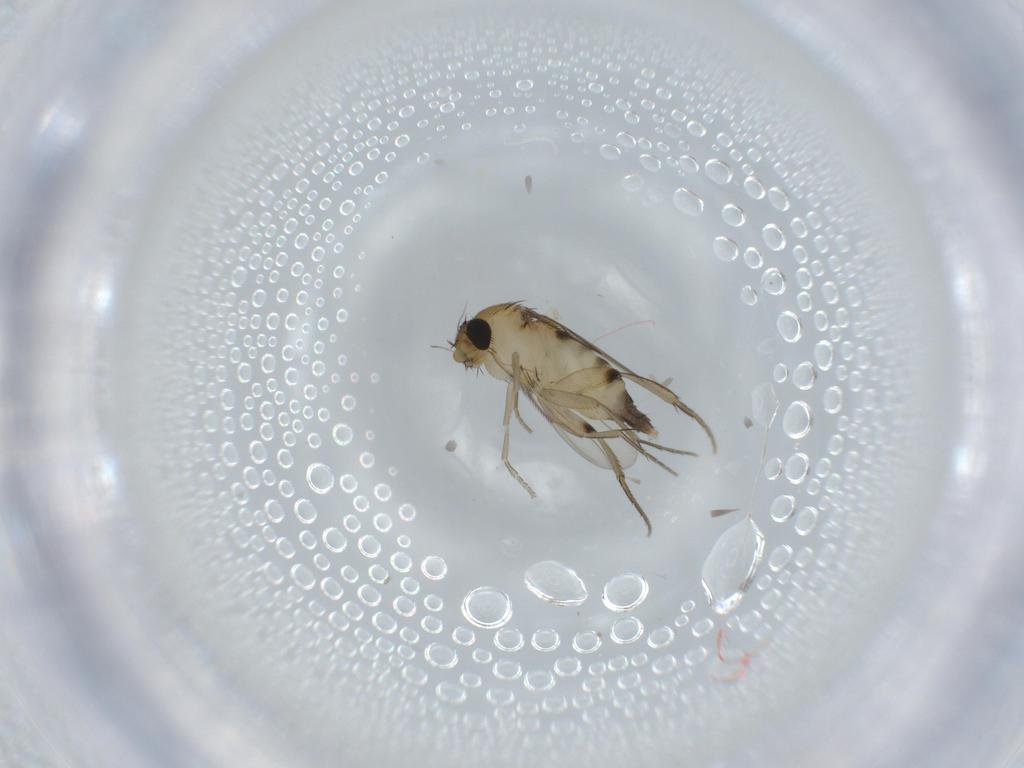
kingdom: Animalia
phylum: Arthropoda
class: Insecta
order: Diptera
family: Phoridae
